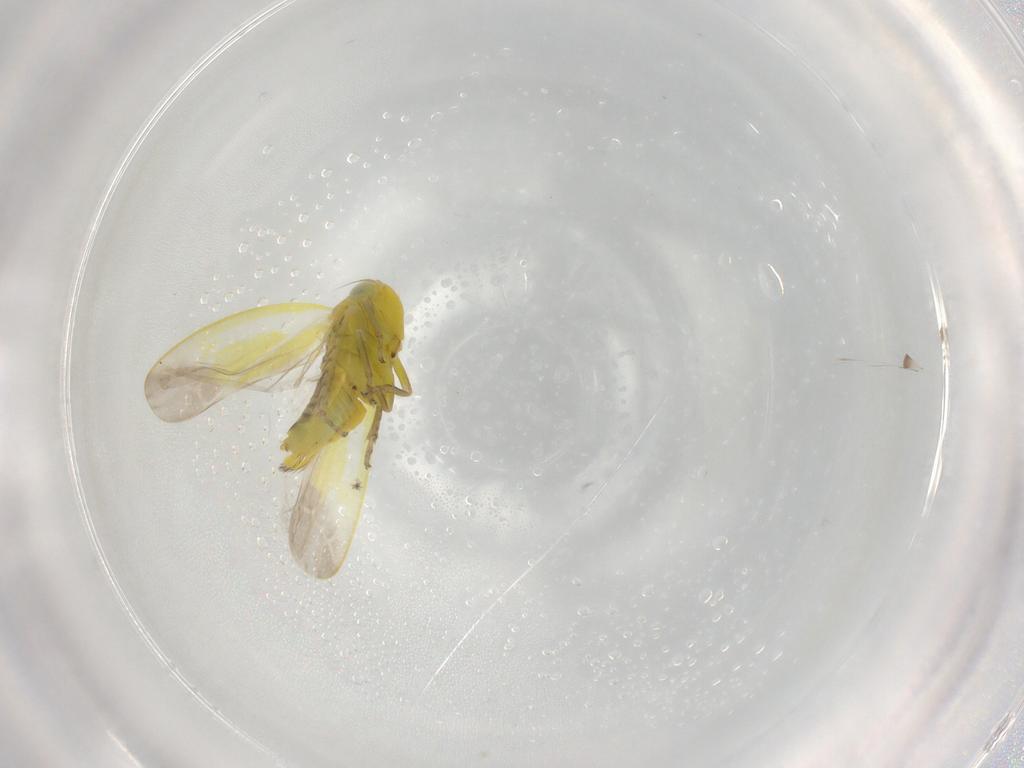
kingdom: Animalia
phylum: Arthropoda
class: Insecta
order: Hemiptera
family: Cicadellidae
